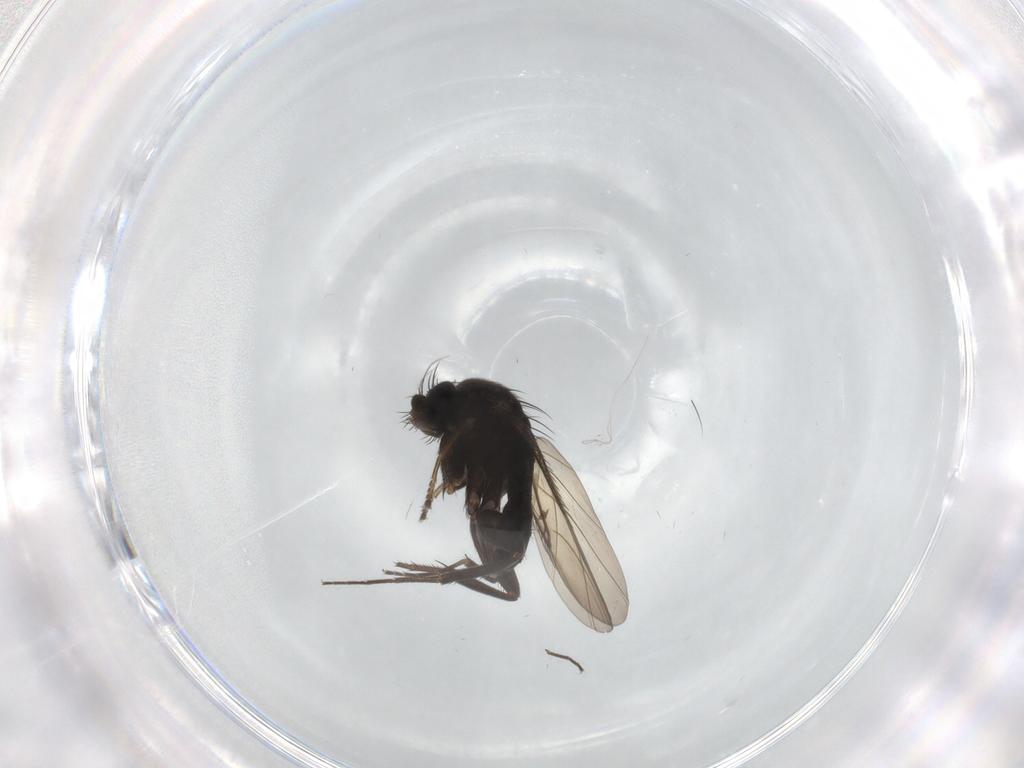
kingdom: Animalia
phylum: Arthropoda
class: Insecta
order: Diptera
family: Phoridae
